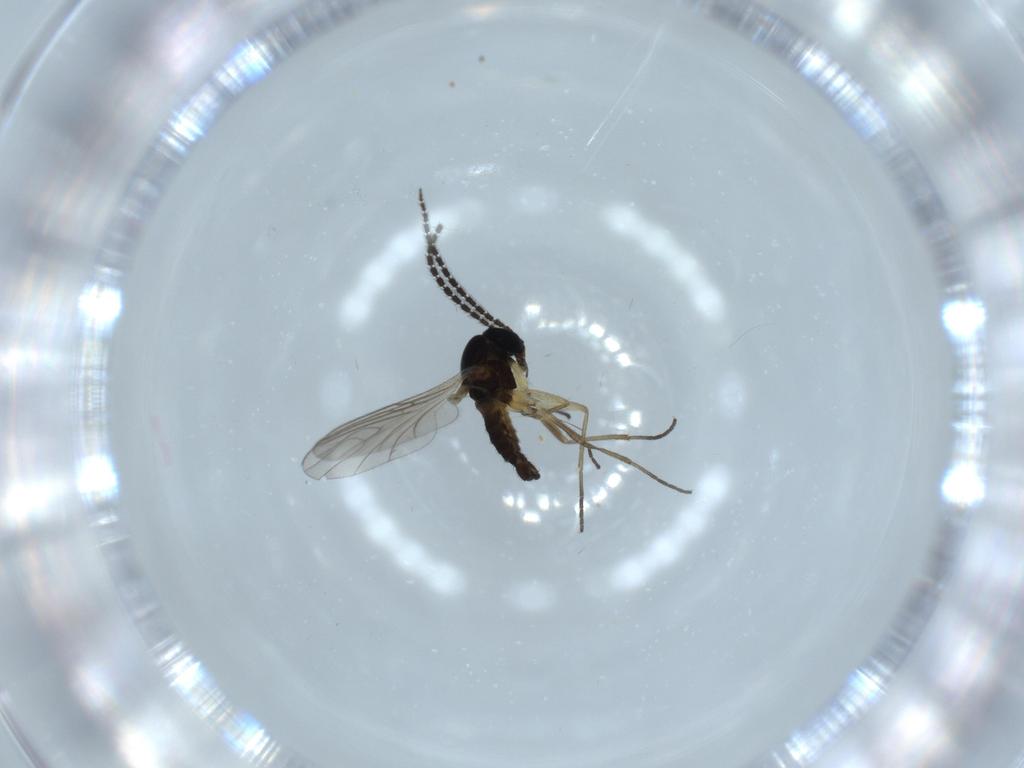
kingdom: Animalia
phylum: Arthropoda
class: Insecta
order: Diptera
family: Sciaridae
